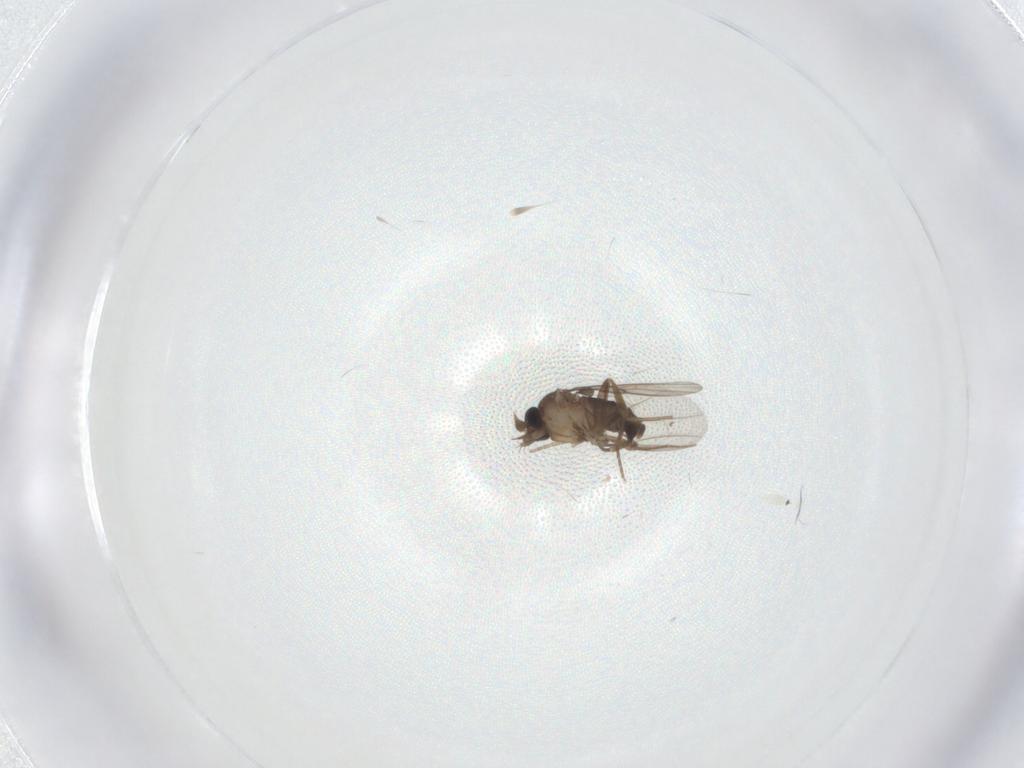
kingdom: Animalia
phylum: Arthropoda
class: Insecta
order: Diptera
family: Phoridae
